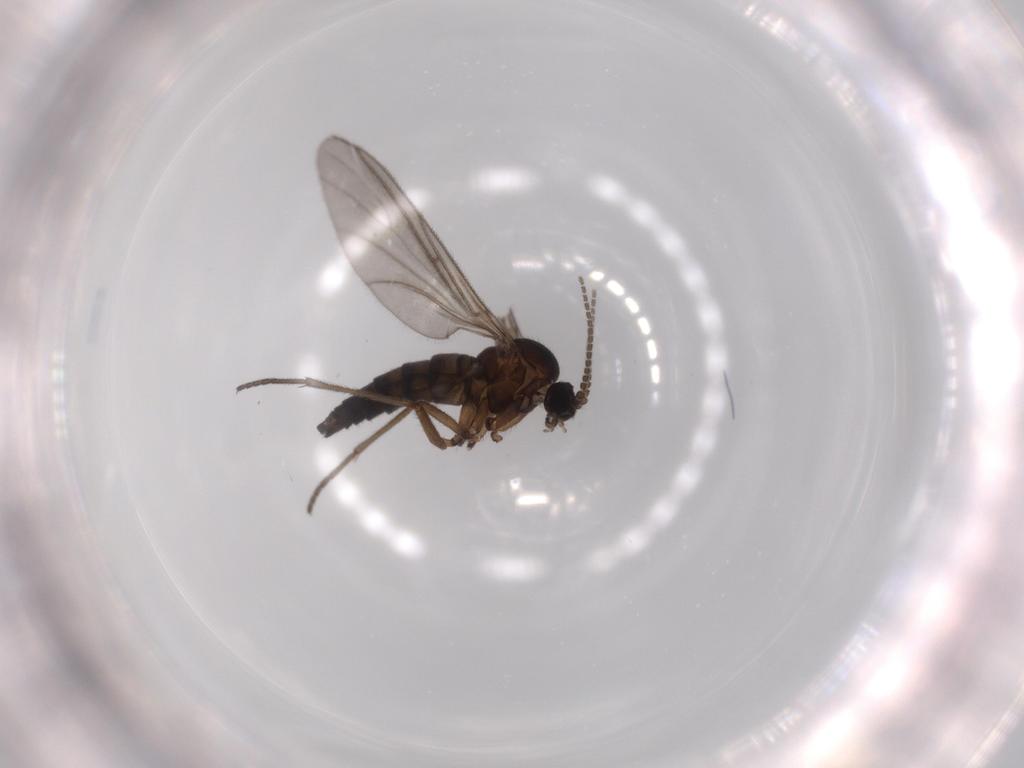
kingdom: Animalia
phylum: Arthropoda
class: Insecta
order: Diptera
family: Sciaridae
